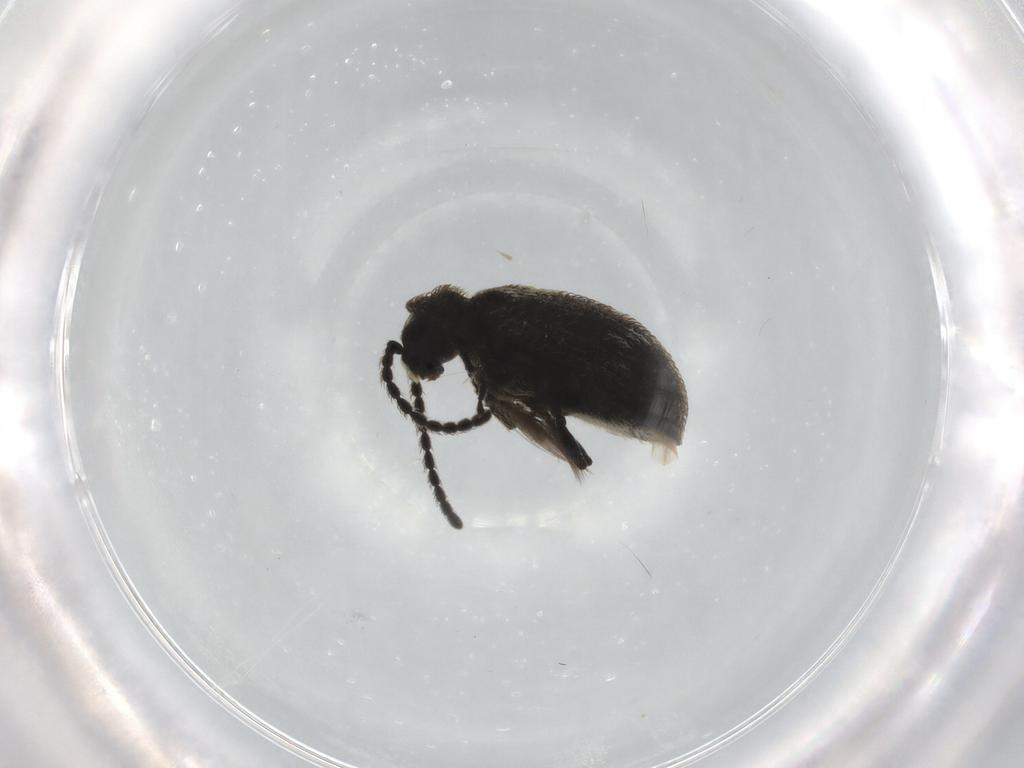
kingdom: Animalia
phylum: Arthropoda
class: Insecta
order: Diptera
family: Ceratopogonidae
